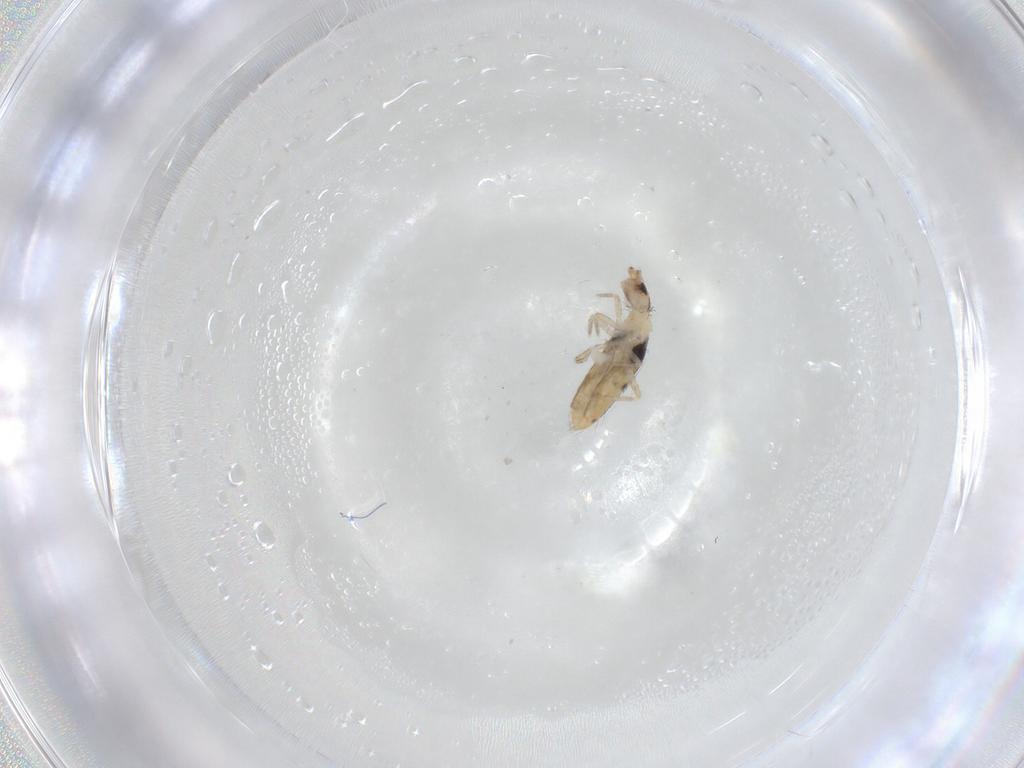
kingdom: Animalia
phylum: Arthropoda
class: Collembola
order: Entomobryomorpha
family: Entomobryidae
